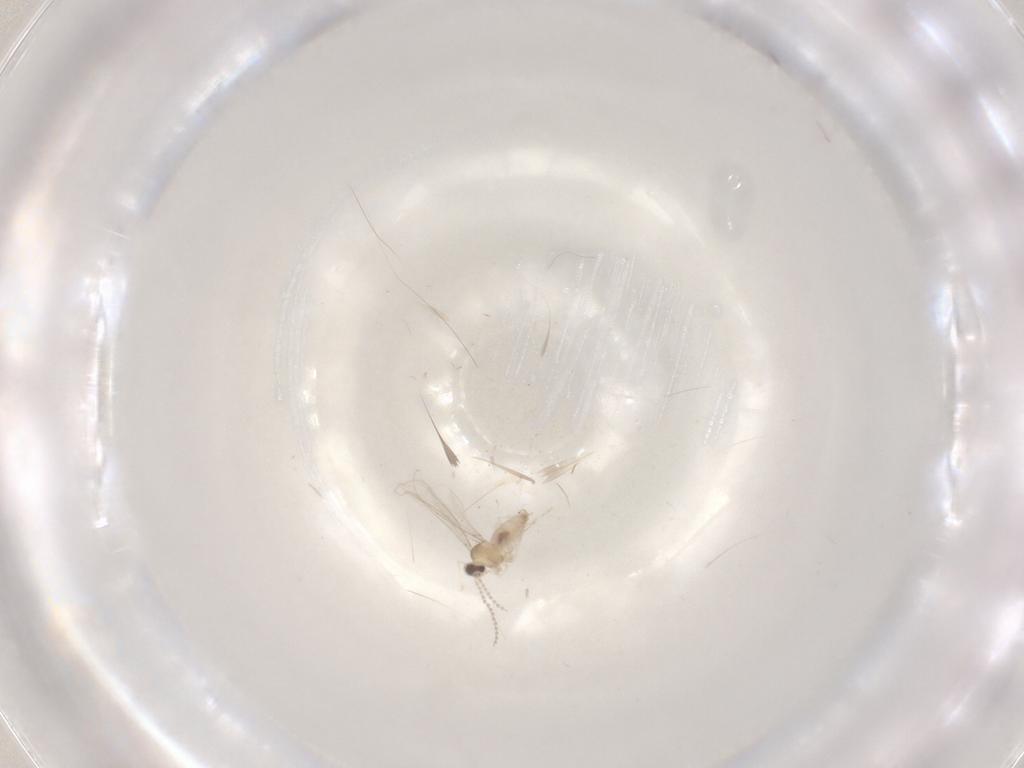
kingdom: Animalia
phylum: Arthropoda
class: Insecta
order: Diptera
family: Cecidomyiidae
